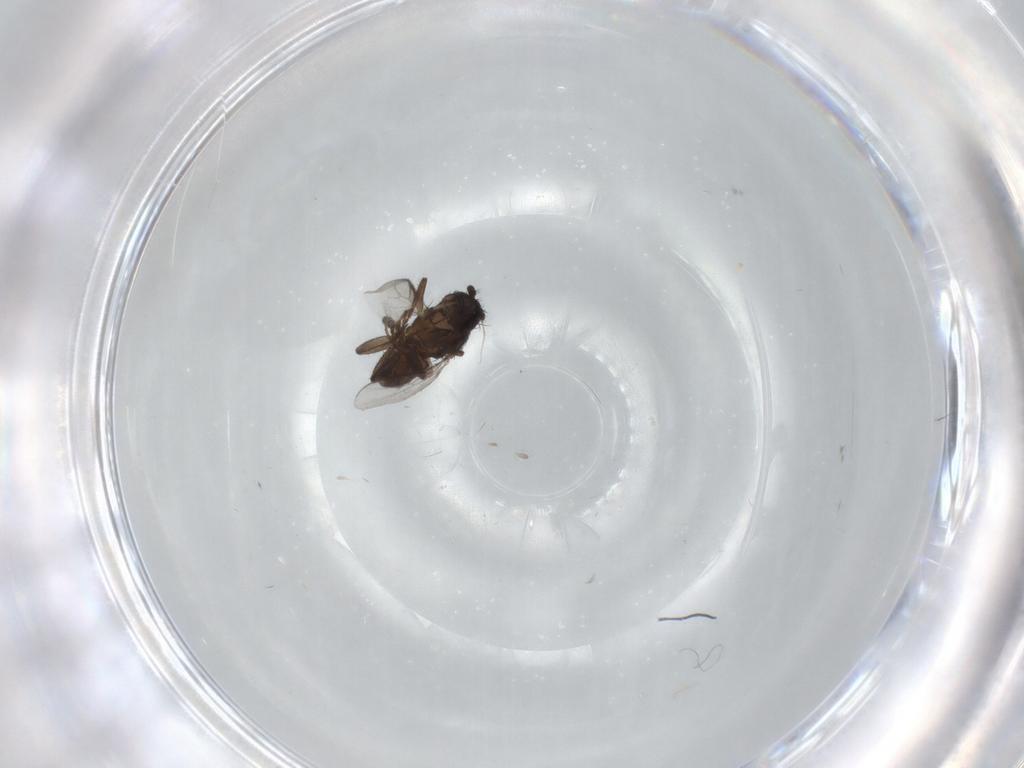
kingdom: Animalia
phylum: Arthropoda
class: Insecta
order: Diptera
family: Sphaeroceridae
